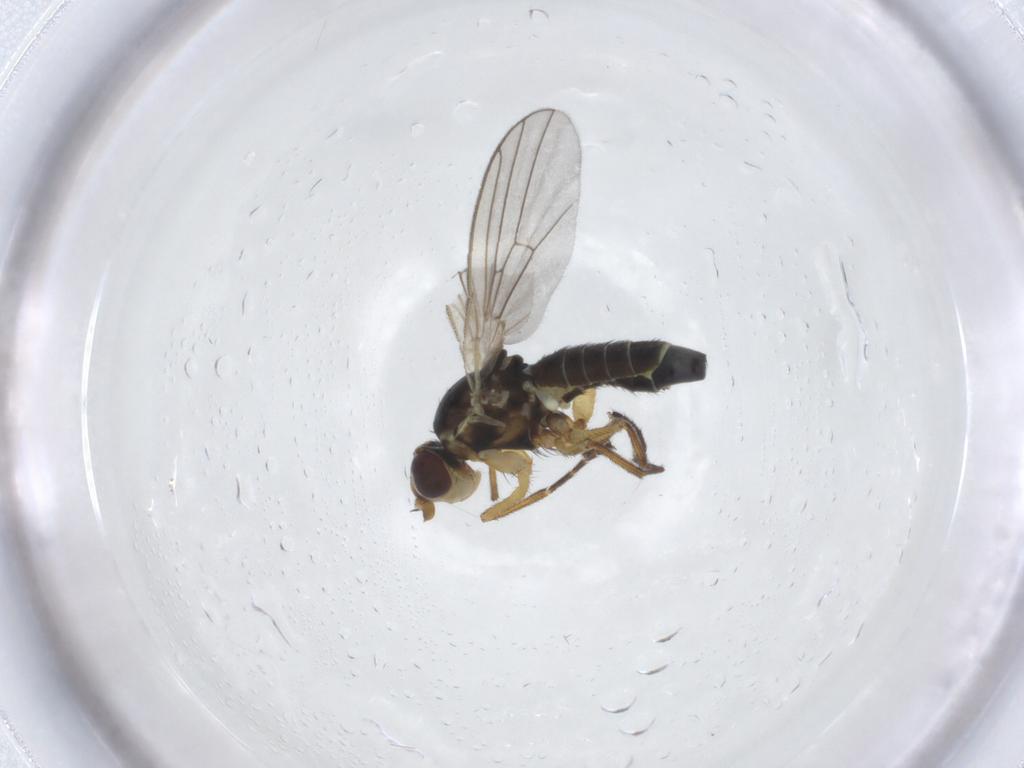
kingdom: Animalia
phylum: Arthropoda
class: Insecta
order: Diptera
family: Agromyzidae
